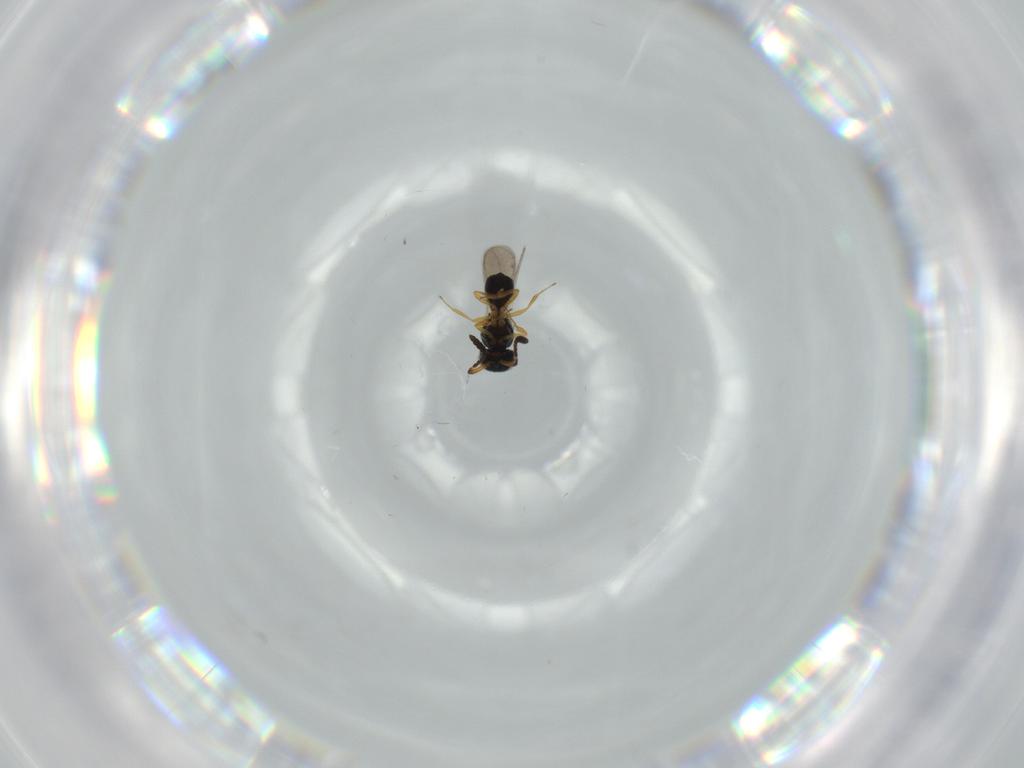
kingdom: Animalia
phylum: Arthropoda
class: Insecta
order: Hymenoptera
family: Scelionidae
